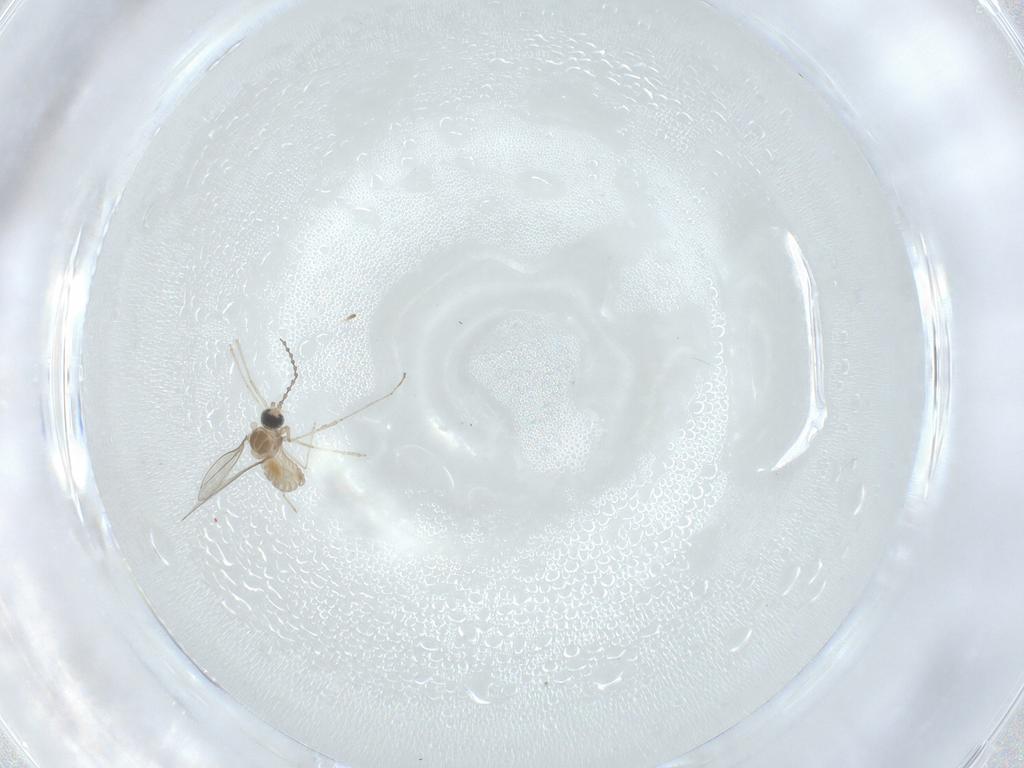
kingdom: Animalia
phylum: Arthropoda
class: Insecta
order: Diptera
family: Cecidomyiidae
